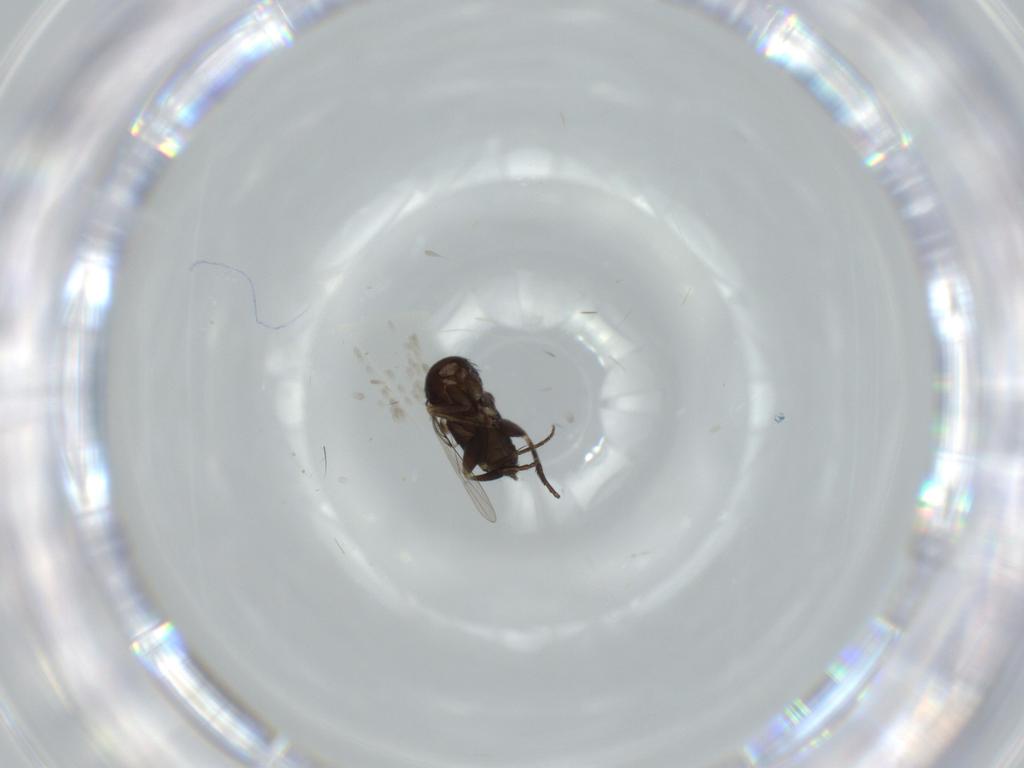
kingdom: Animalia
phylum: Arthropoda
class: Insecta
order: Diptera
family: Phoridae
